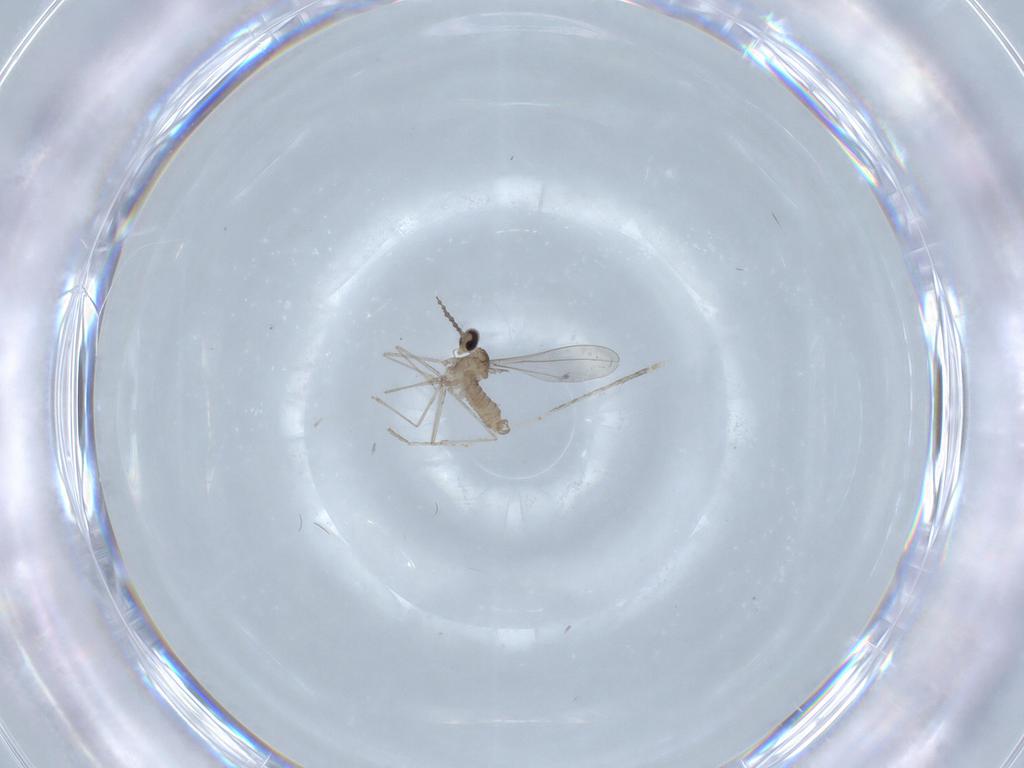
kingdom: Animalia
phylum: Arthropoda
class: Insecta
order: Diptera
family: Cecidomyiidae
